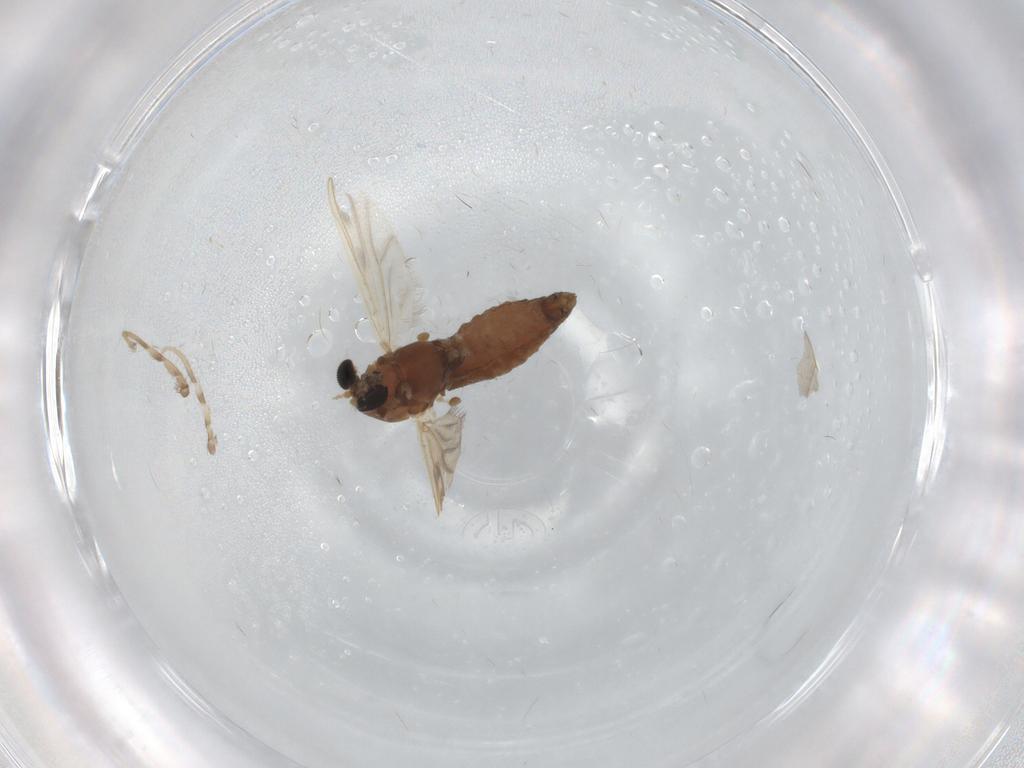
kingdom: Animalia
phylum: Arthropoda
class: Insecta
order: Diptera
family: Chironomidae
